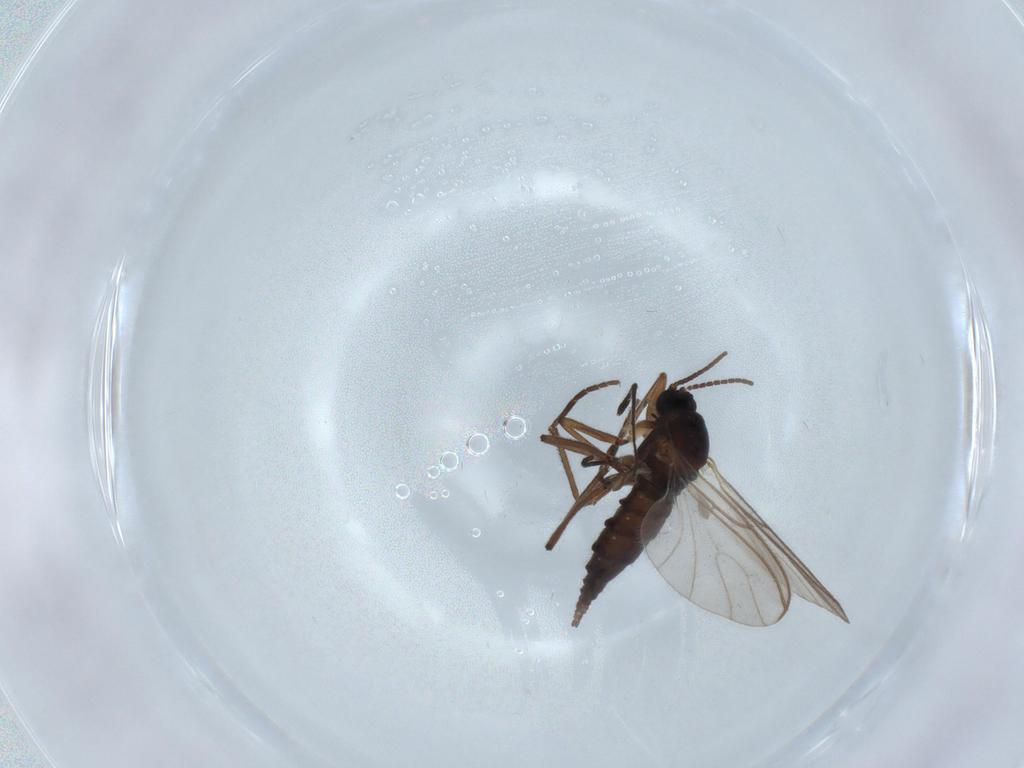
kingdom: Animalia
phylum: Arthropoda
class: Insecta
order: Diptera
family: Sciaridae
